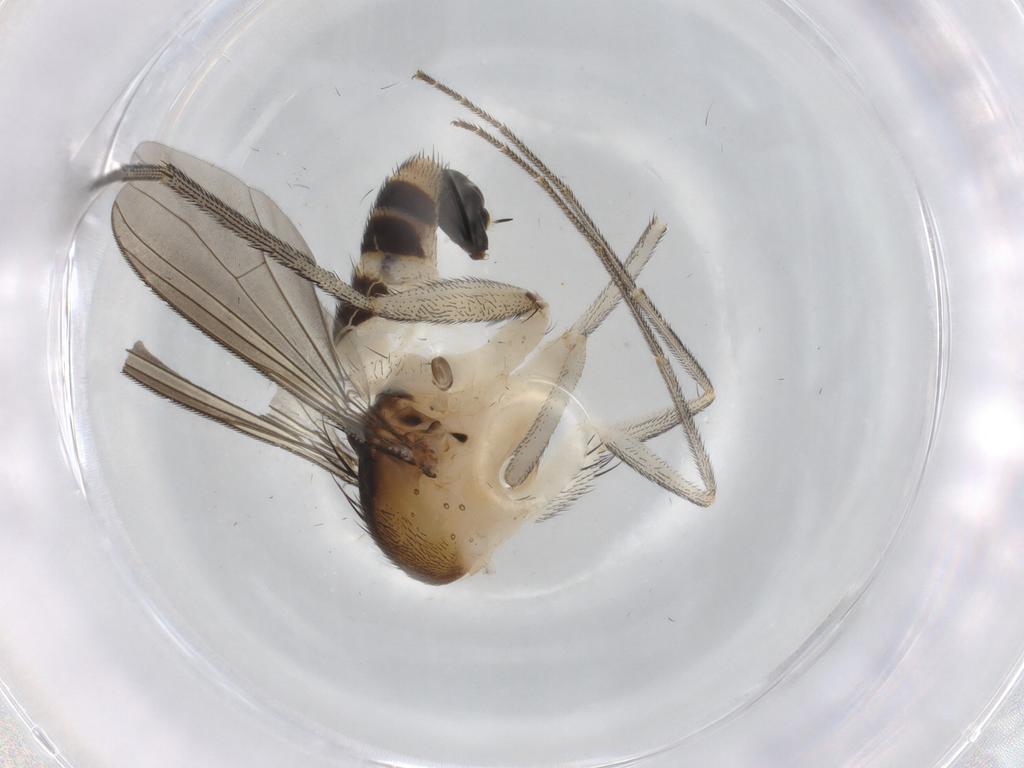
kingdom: Animalia
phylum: Arthropoda
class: Insecta
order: Diptera
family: Dolichopodidae
